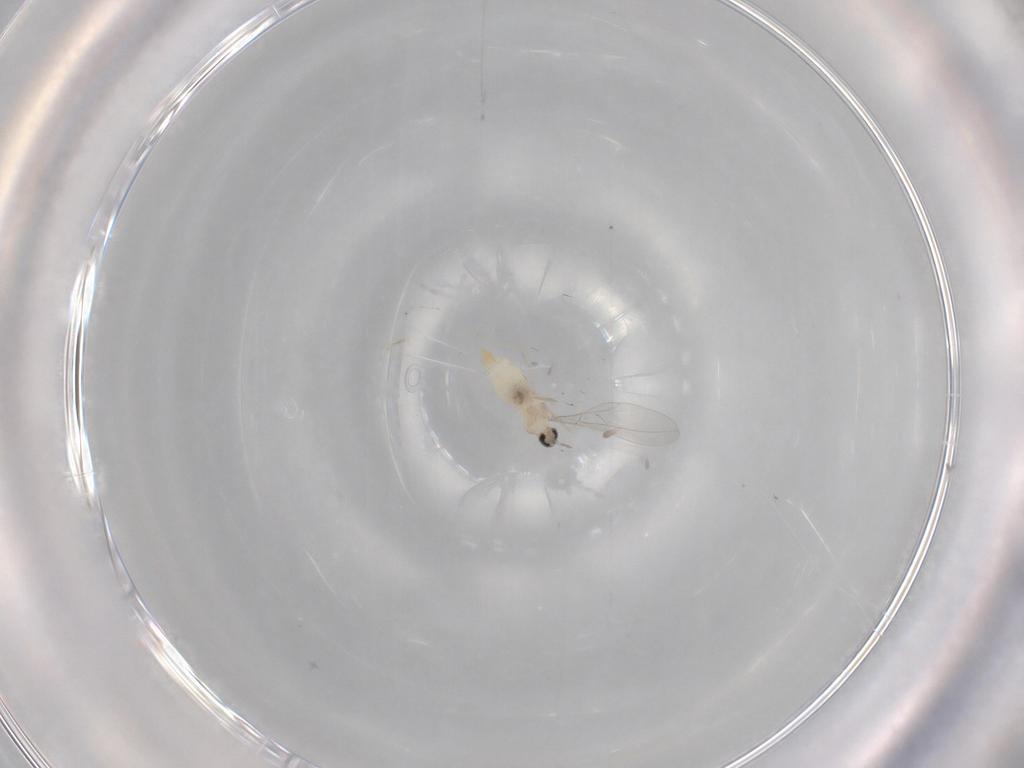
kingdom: Animalia
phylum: Arthropoda
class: Insecta
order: Diptera
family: Cecidomyiidae
